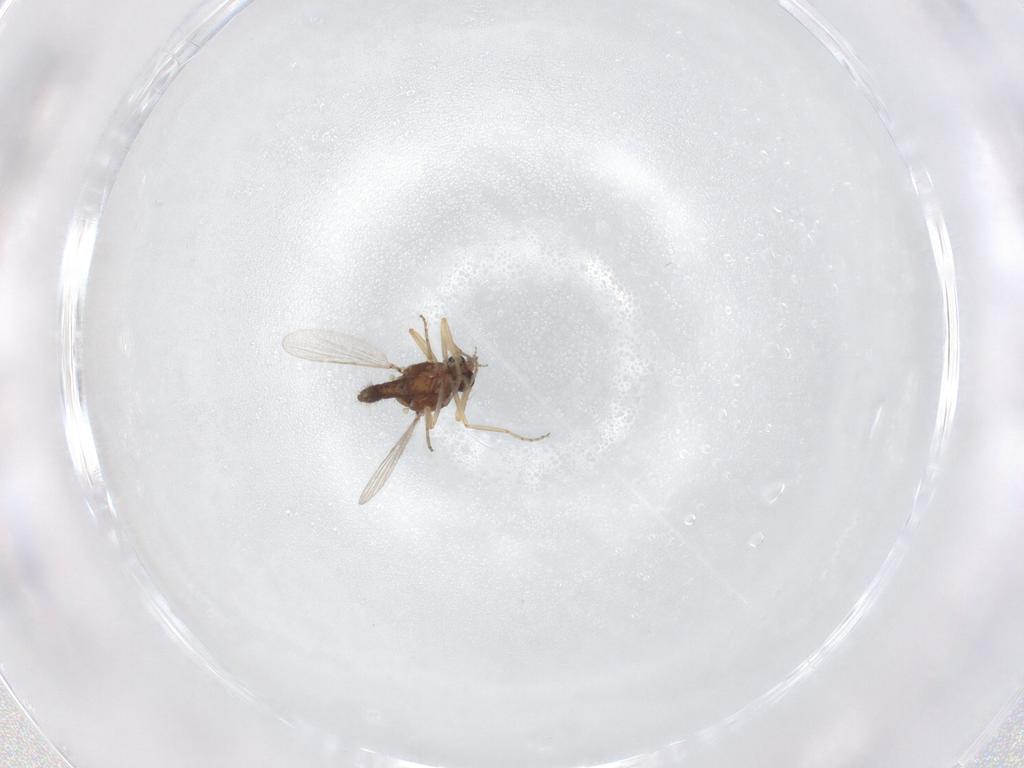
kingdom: Animalia
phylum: Arthropoda
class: Insecta
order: Diptera
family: Ceratopogonidae
